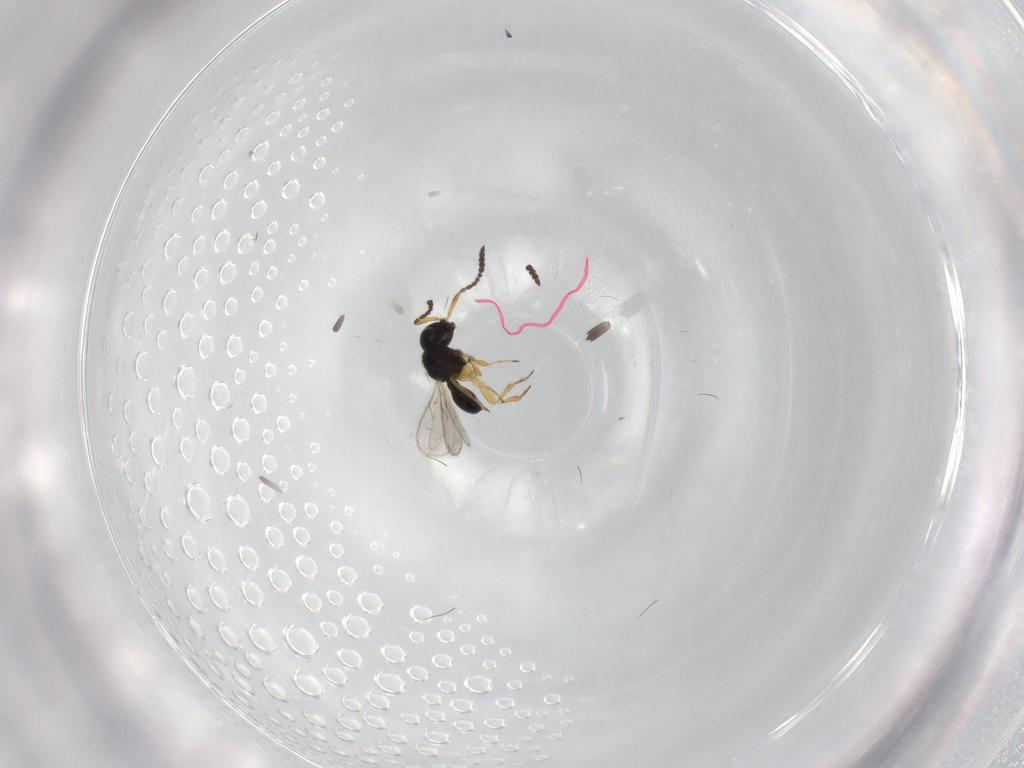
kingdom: Animalia
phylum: Arthropoda
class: Insecta
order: Hymenoptera
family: Scelionidae
